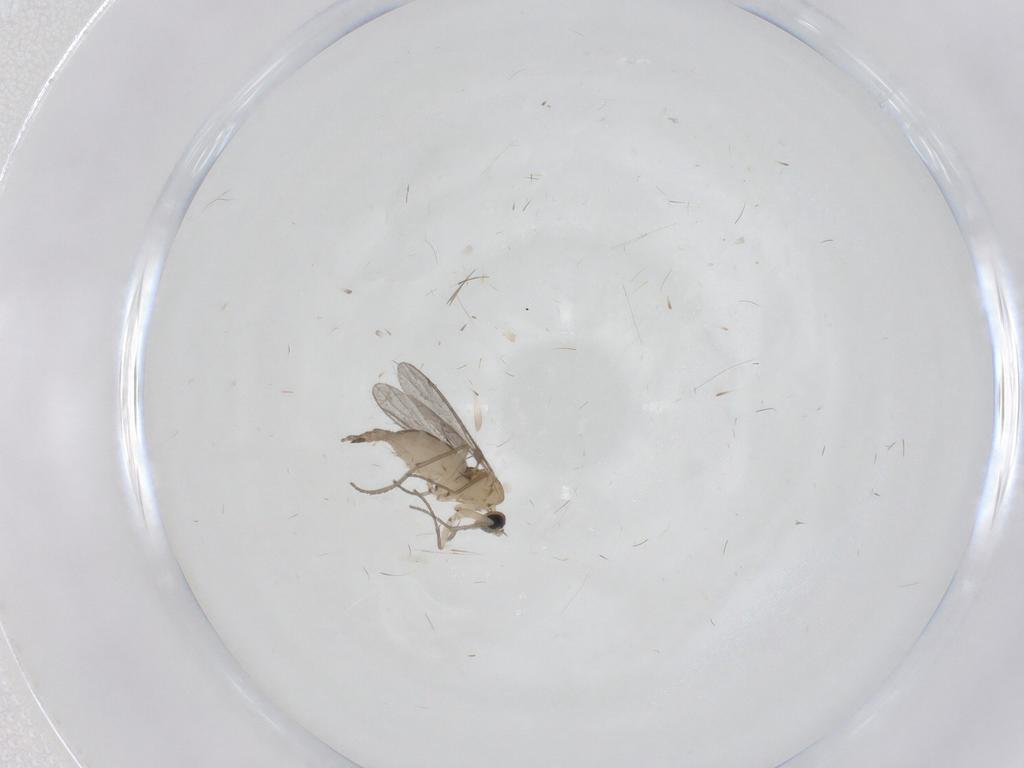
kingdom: Animalia
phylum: Arthropoda
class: Insecta
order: Diptera
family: Sciaridae
